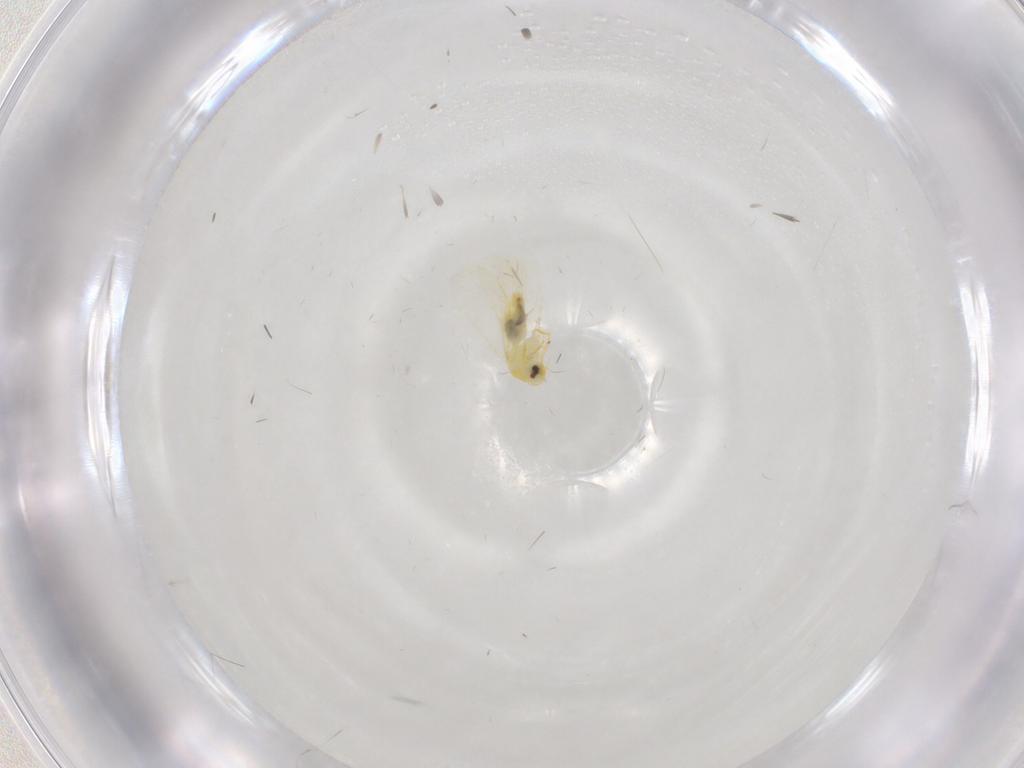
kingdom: Animalia
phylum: Arthropoda
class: Insecta
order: Hemiptera
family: Aleyrodidae
